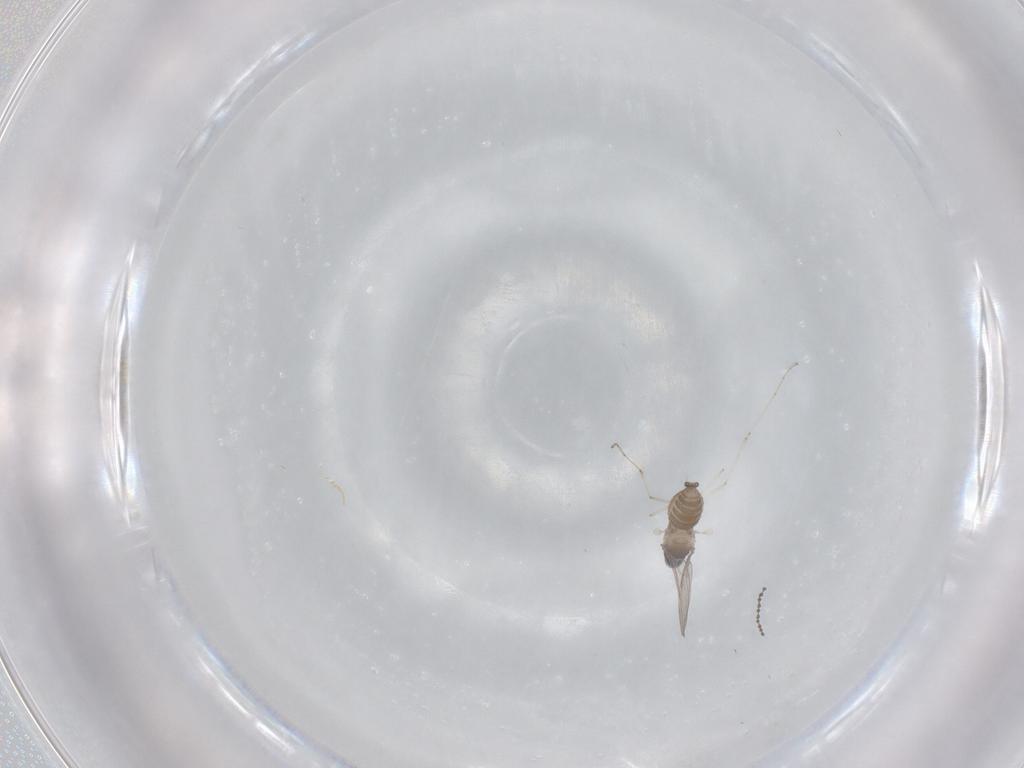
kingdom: Animalia
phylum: Arthropoda
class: Insecta
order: Diptera
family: Cecidomyiidae
